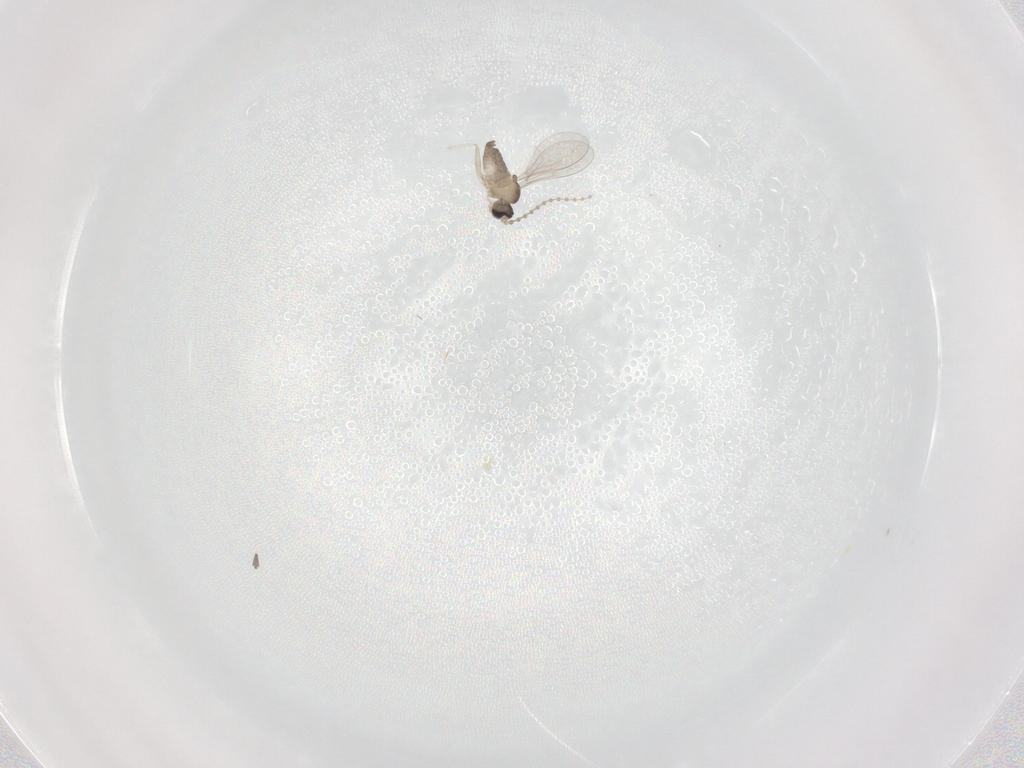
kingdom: Animalia
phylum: Arthropoda
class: Insecta
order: Diptera
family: Cecidomyiidae
